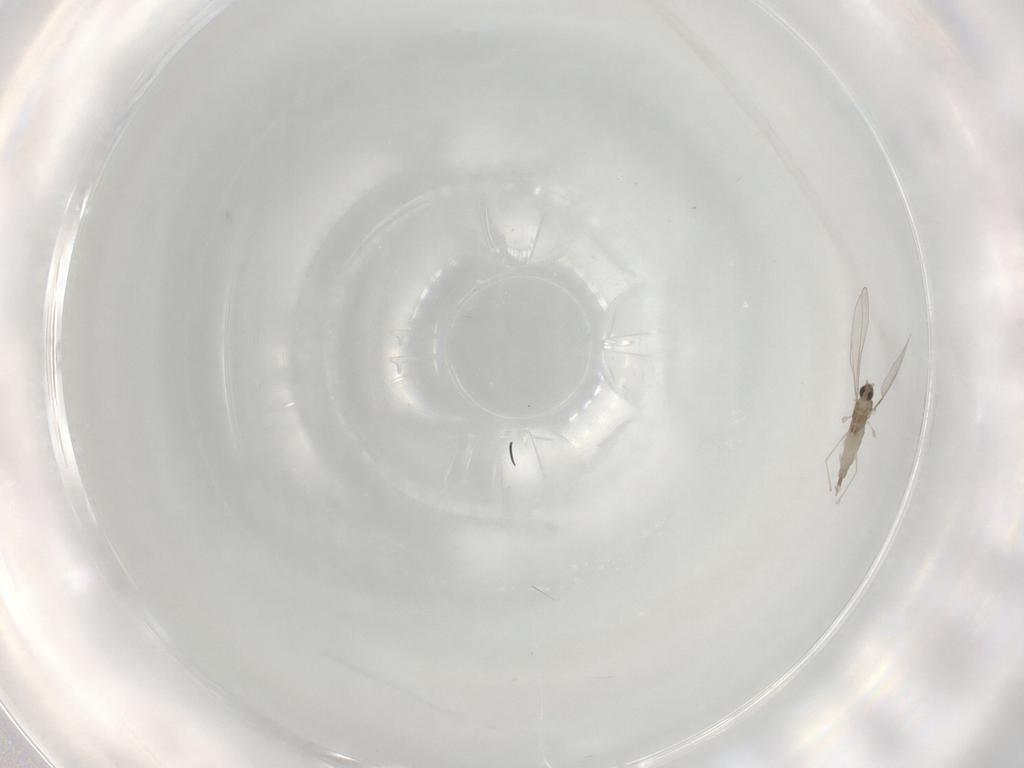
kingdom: Animalia
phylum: Arthropoda
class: Insecta
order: Diptera
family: Cecidomyiidae
